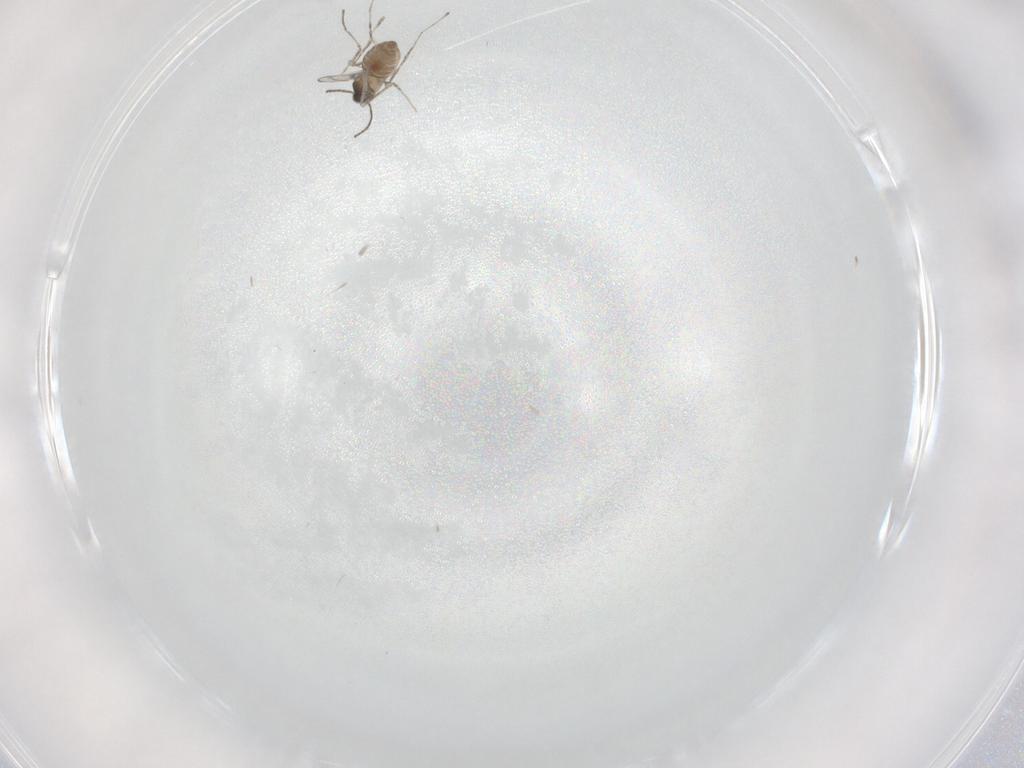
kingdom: Animalia
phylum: Arthropoda
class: Insecta
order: Diptera
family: Cecidomyiidae
